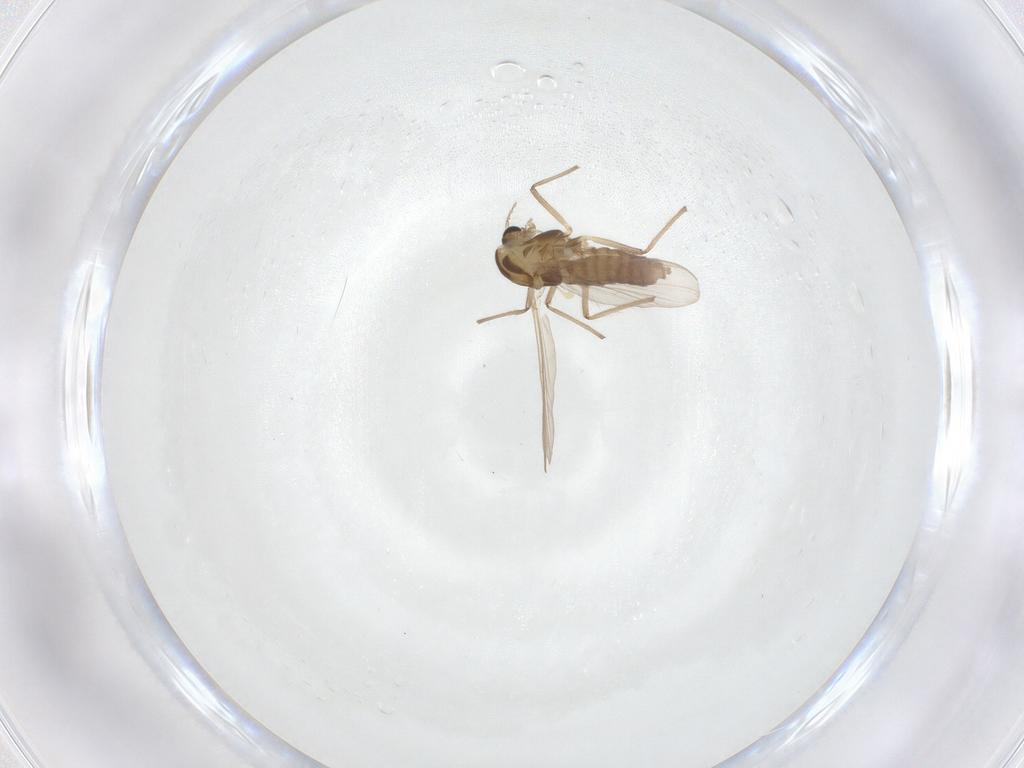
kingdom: Animalia
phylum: Arthropoda
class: Insecta
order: Diptera
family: Chironomidae
